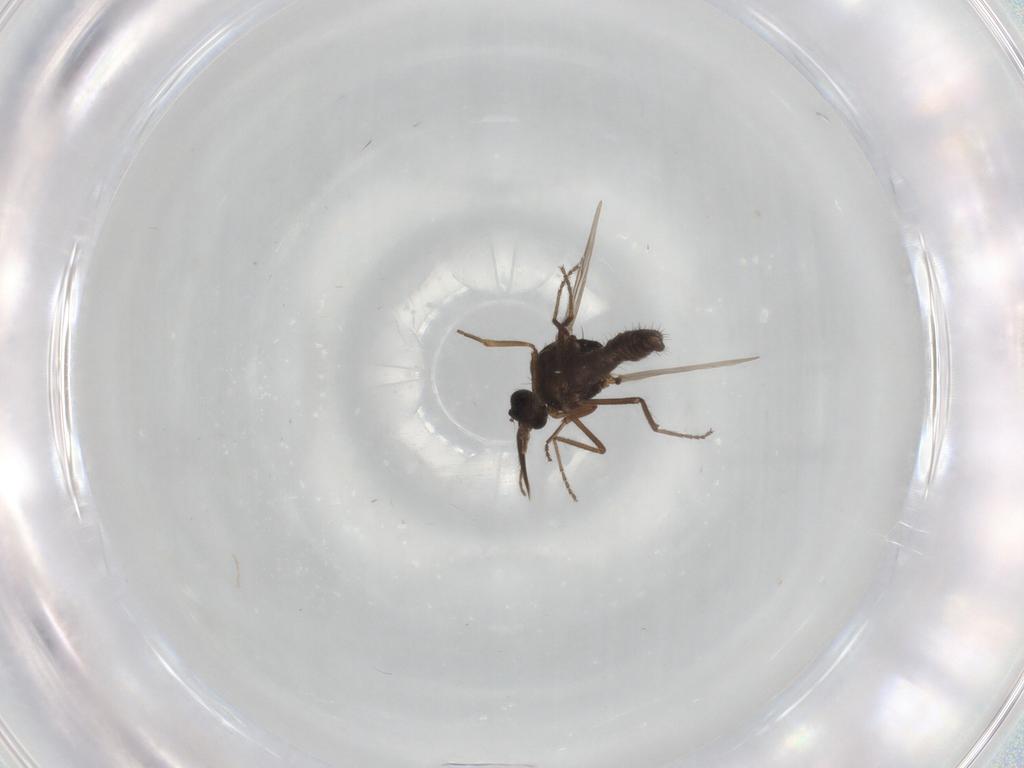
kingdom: Animalia
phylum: Arthropoda
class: Insecta
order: Diptera
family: Ceratopogonidae
